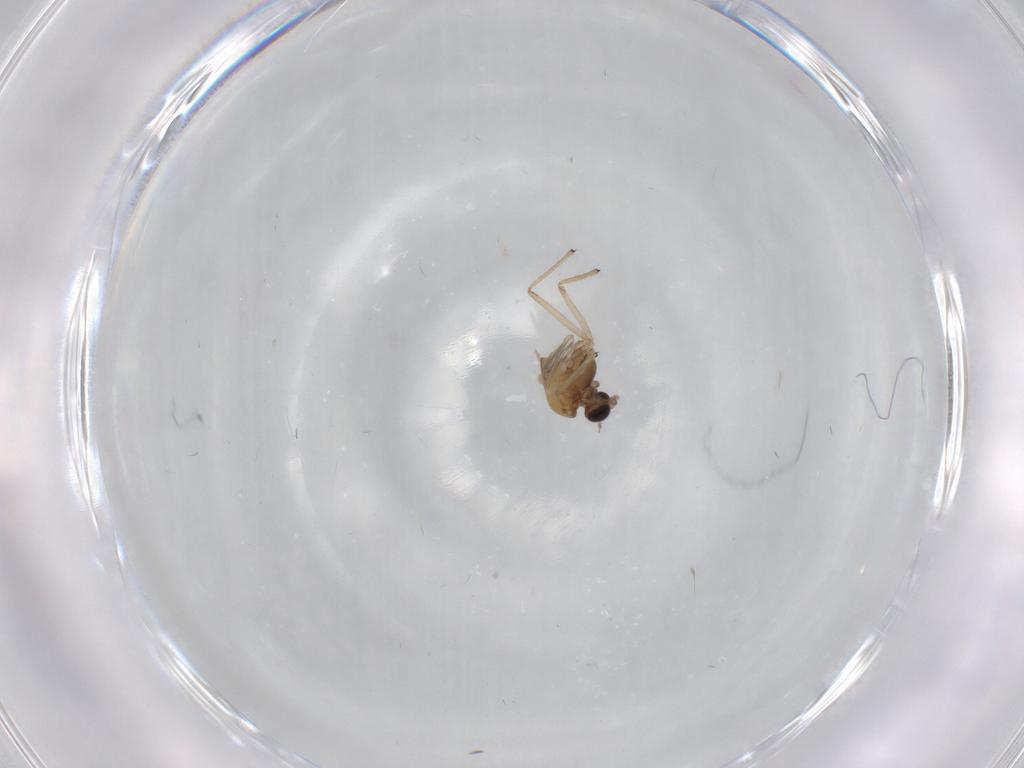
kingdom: Animalia
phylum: Arthropoda
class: Insecta
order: Diptera
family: Chironomidae
